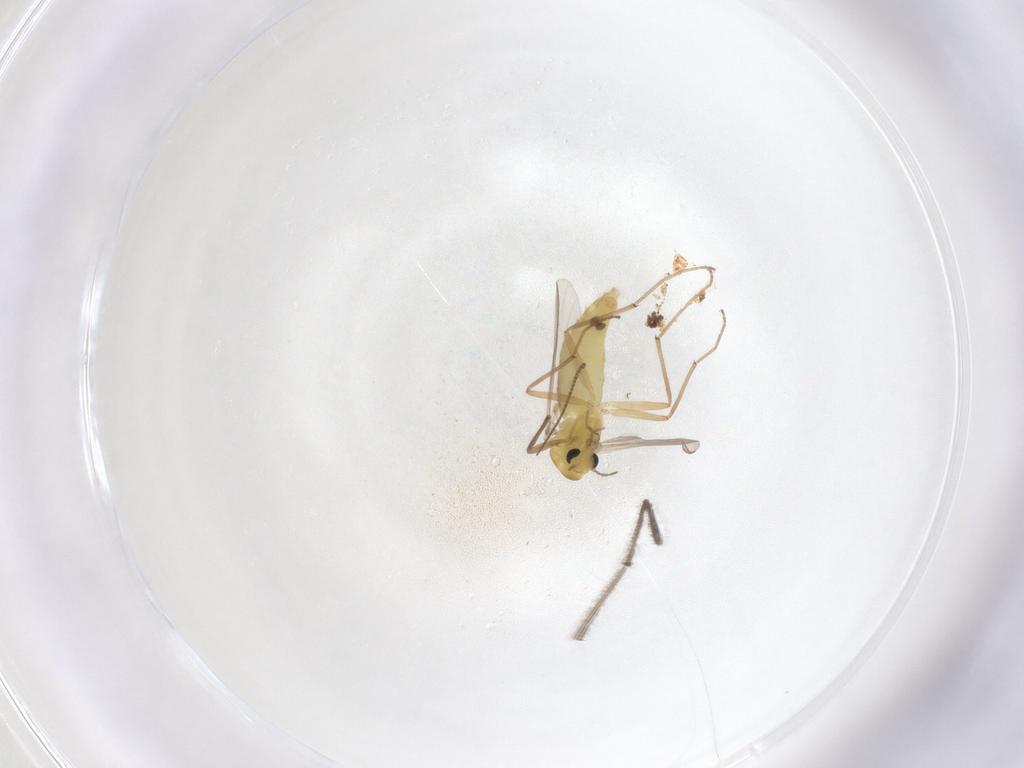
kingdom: Animalia
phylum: Arthropoda
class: Insecta
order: Diptera
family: Chironomidae
